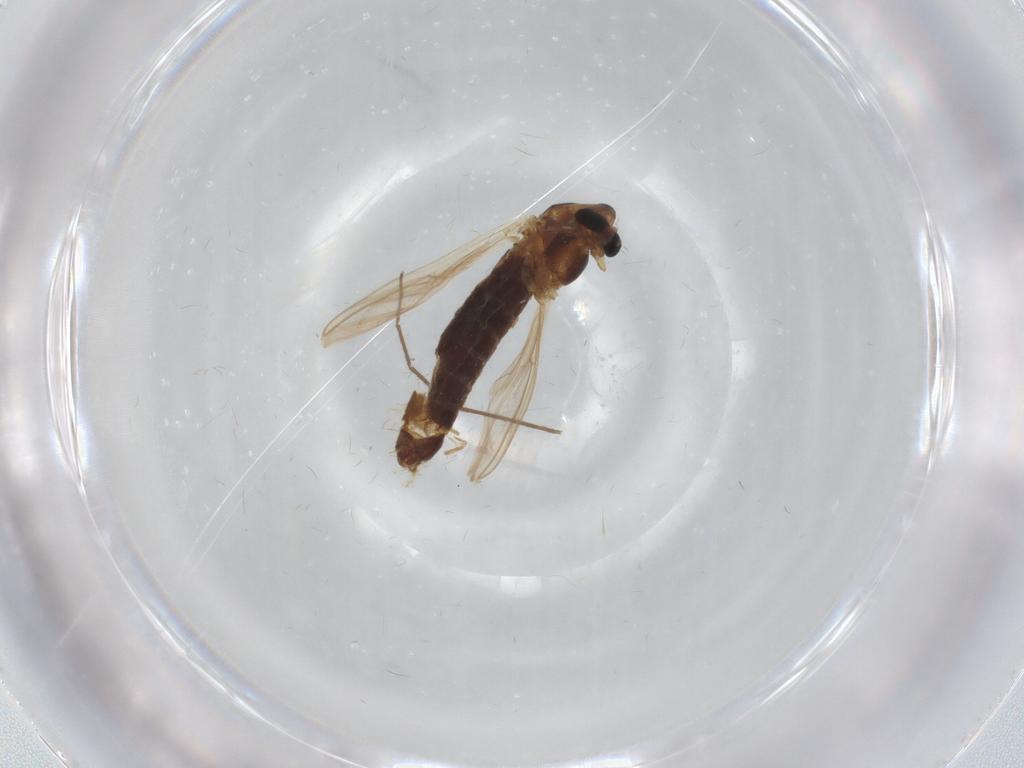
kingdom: Animalia
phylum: Arthropoda
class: Insecta
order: Diptera
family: Chironomidae
